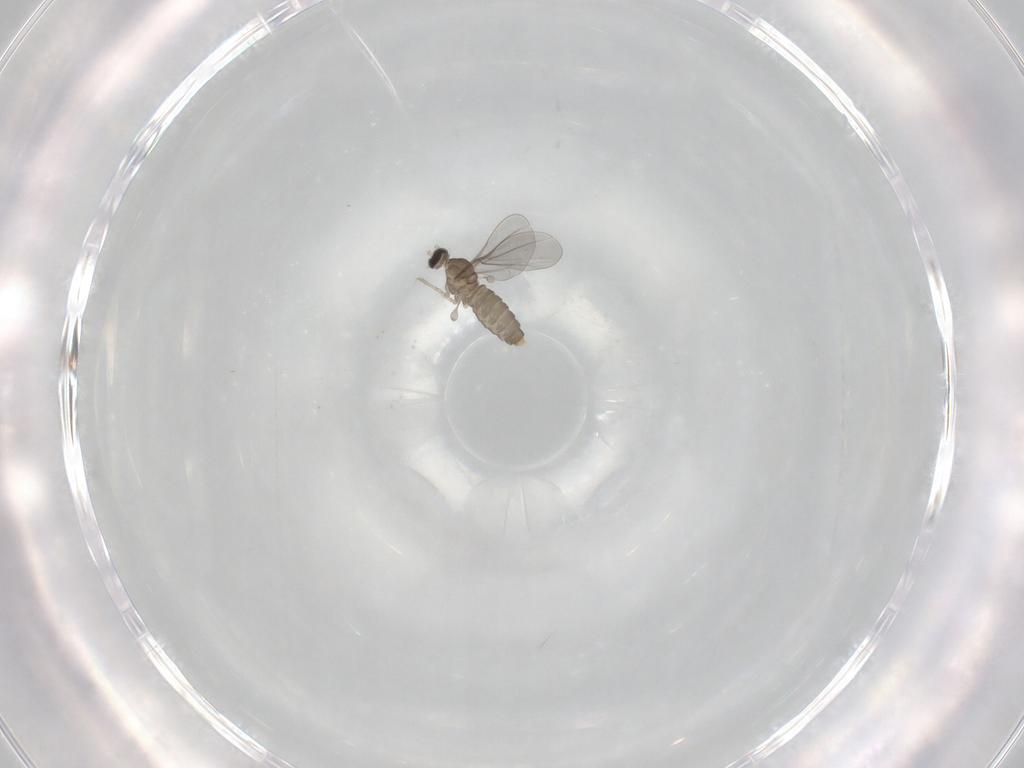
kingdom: Animalia
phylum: Arthropoda
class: Insecta
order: Diptera
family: Cecidomyiidae
